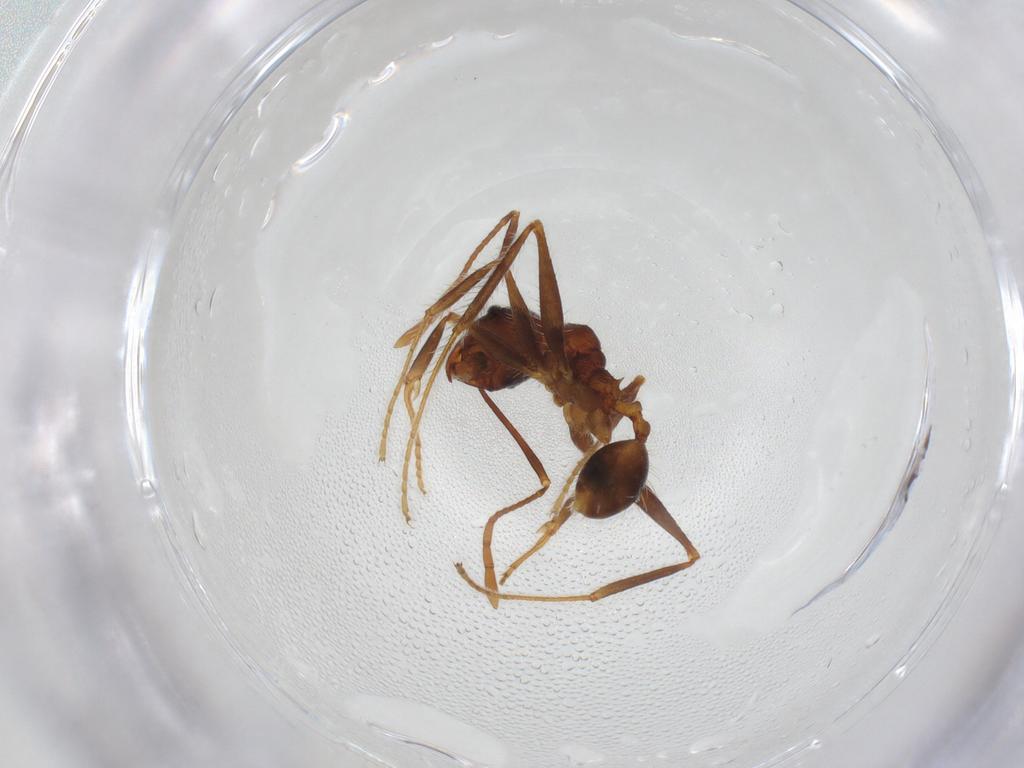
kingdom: Animalia
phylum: Arthropoda
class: Insecta
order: Hymenoptera
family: Formicidae
